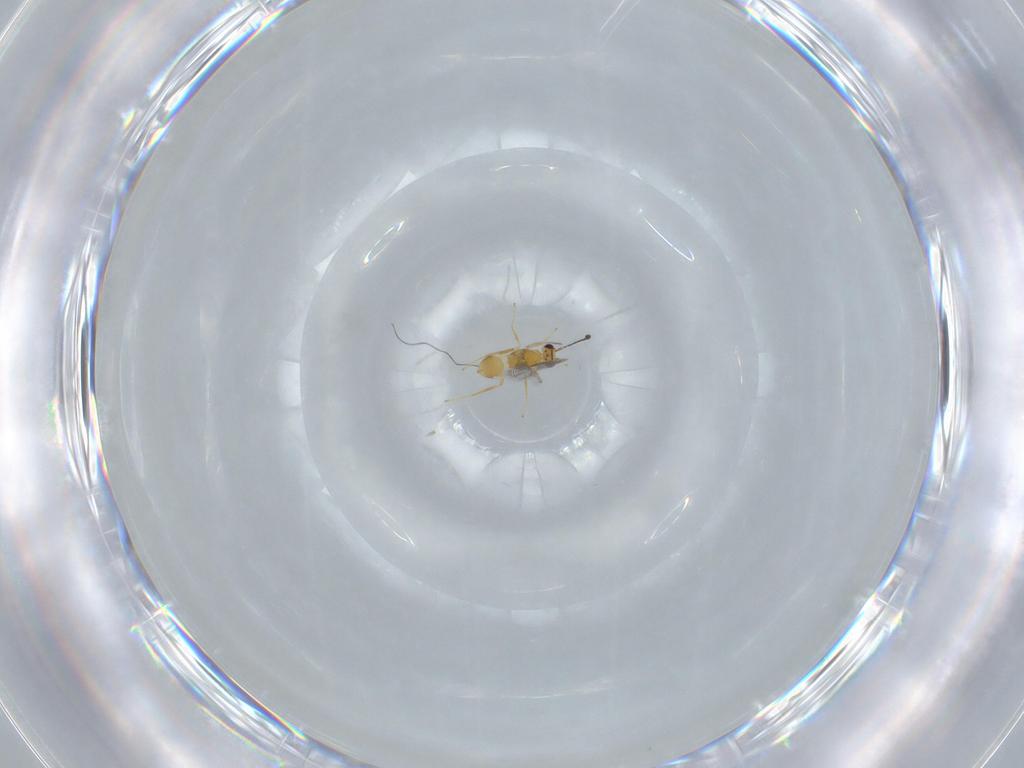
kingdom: Animalia
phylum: Arthropoda
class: Insecta
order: Hymenoptera
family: Mymaridae
